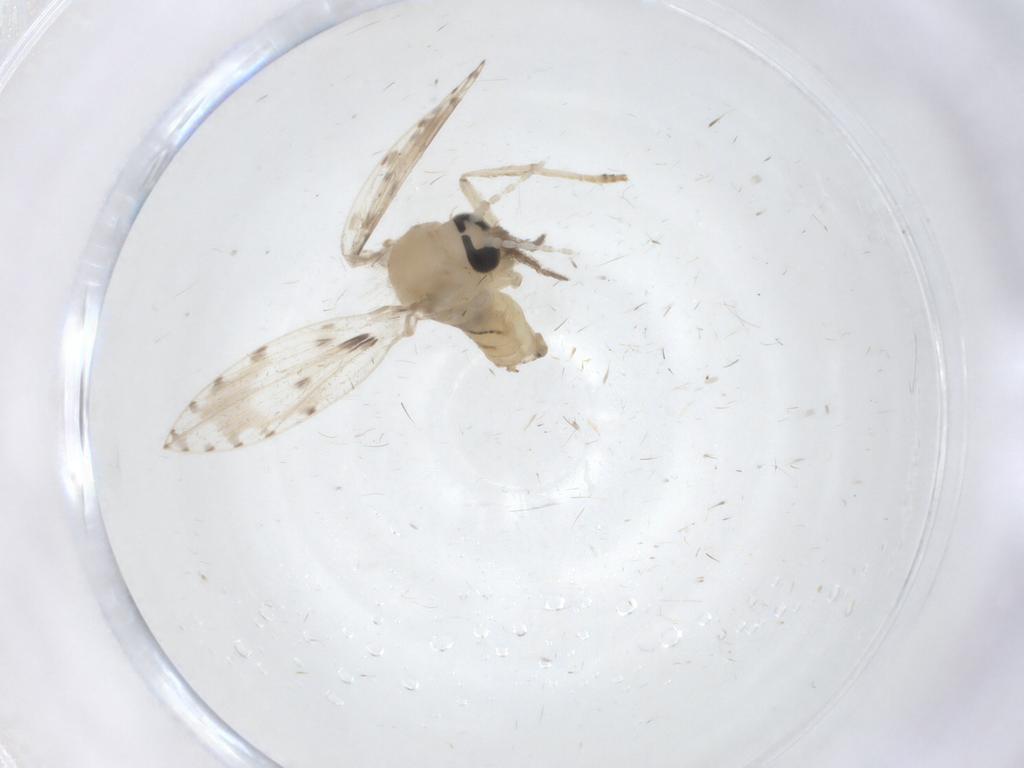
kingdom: Animalia
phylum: Arthropoda
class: Insecta
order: Diptera
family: Psychodidae
